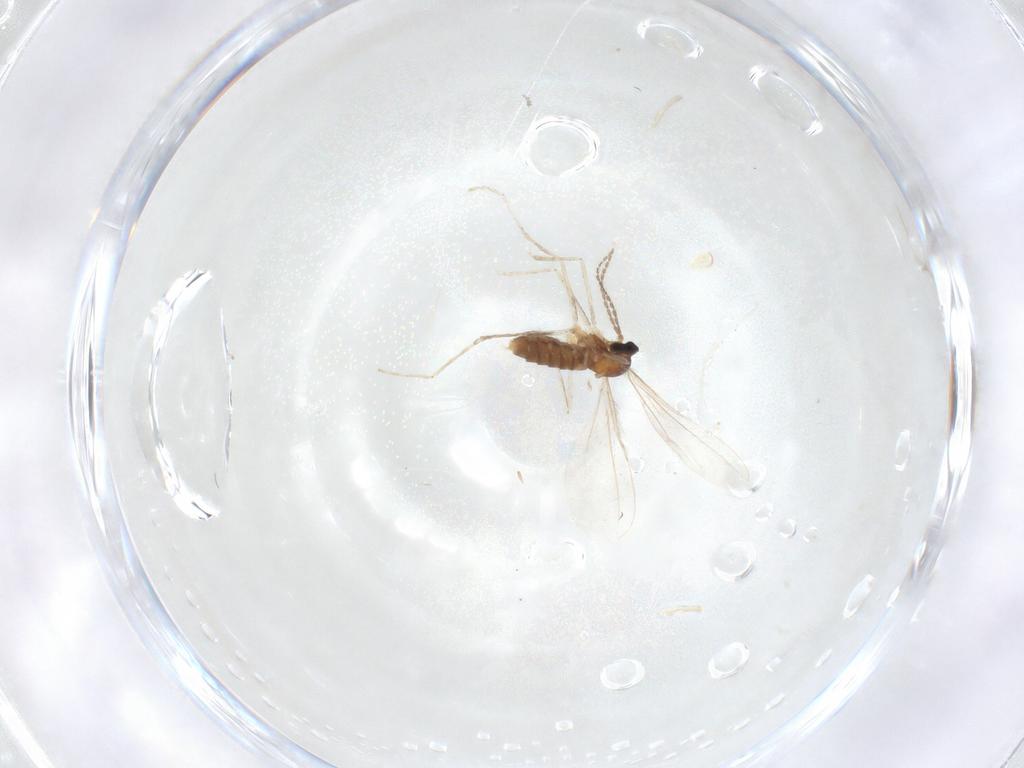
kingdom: Animalia
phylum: Arthropoda
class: Insecta
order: Diptera
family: Cecidomyiidae
